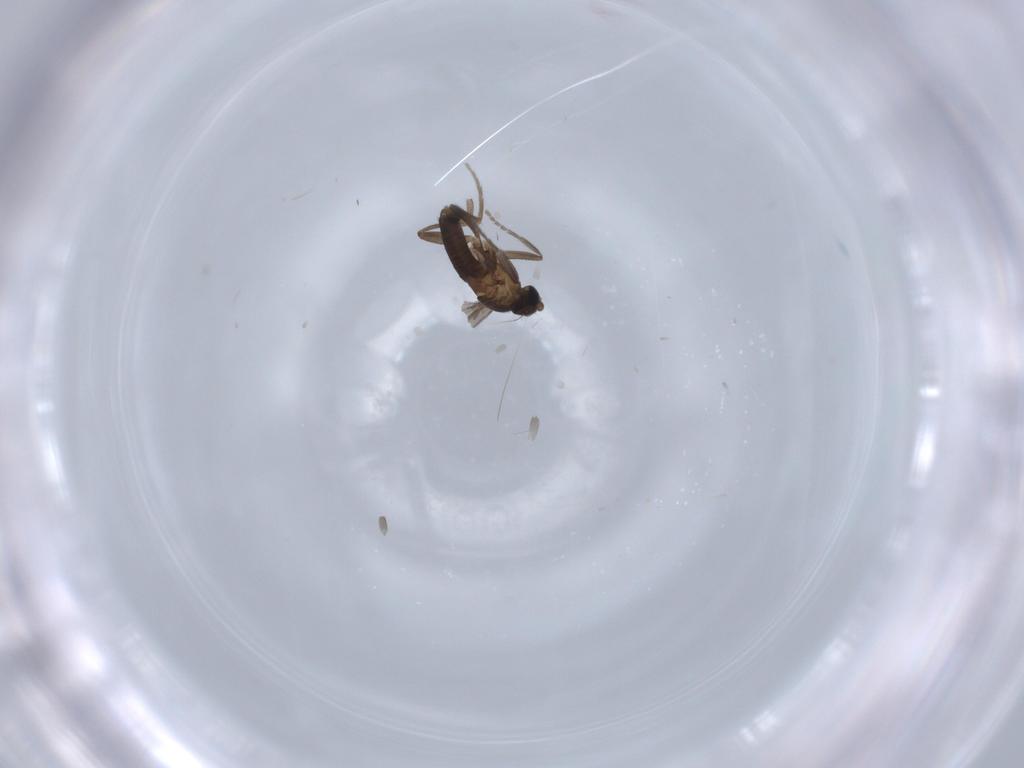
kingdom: Animalia
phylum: Arthropoda
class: Insecta
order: Diptera
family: Phoridae
